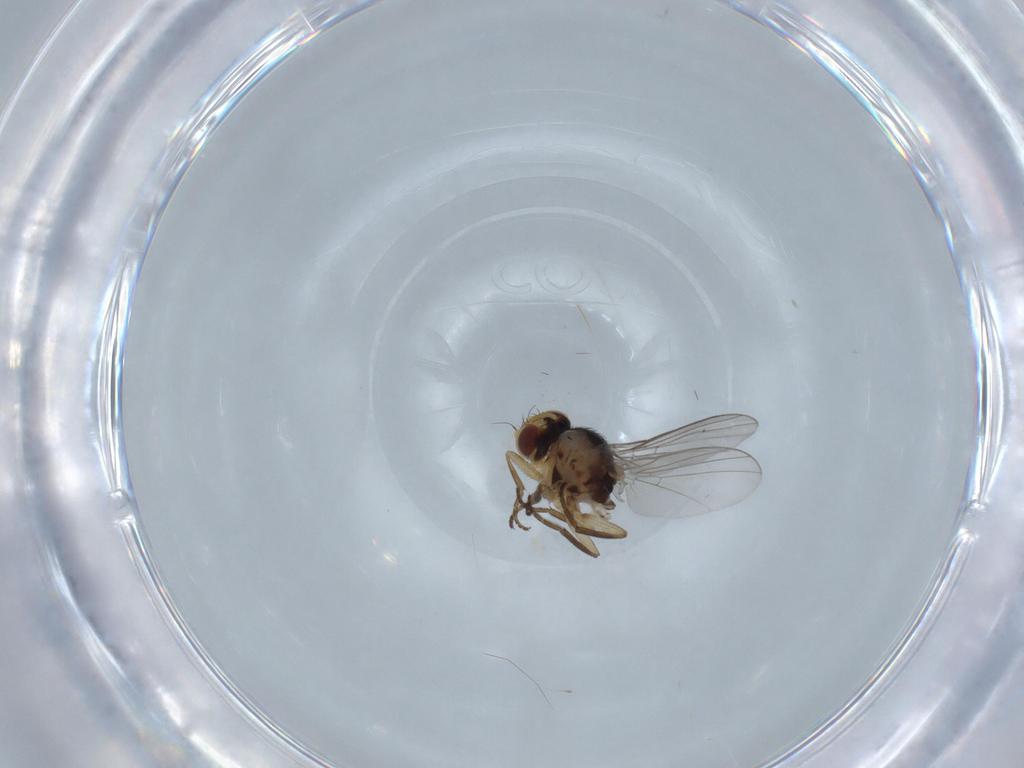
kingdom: Animalia
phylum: Arthropoda
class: Insecta
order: Diptera
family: Agromyzidae
